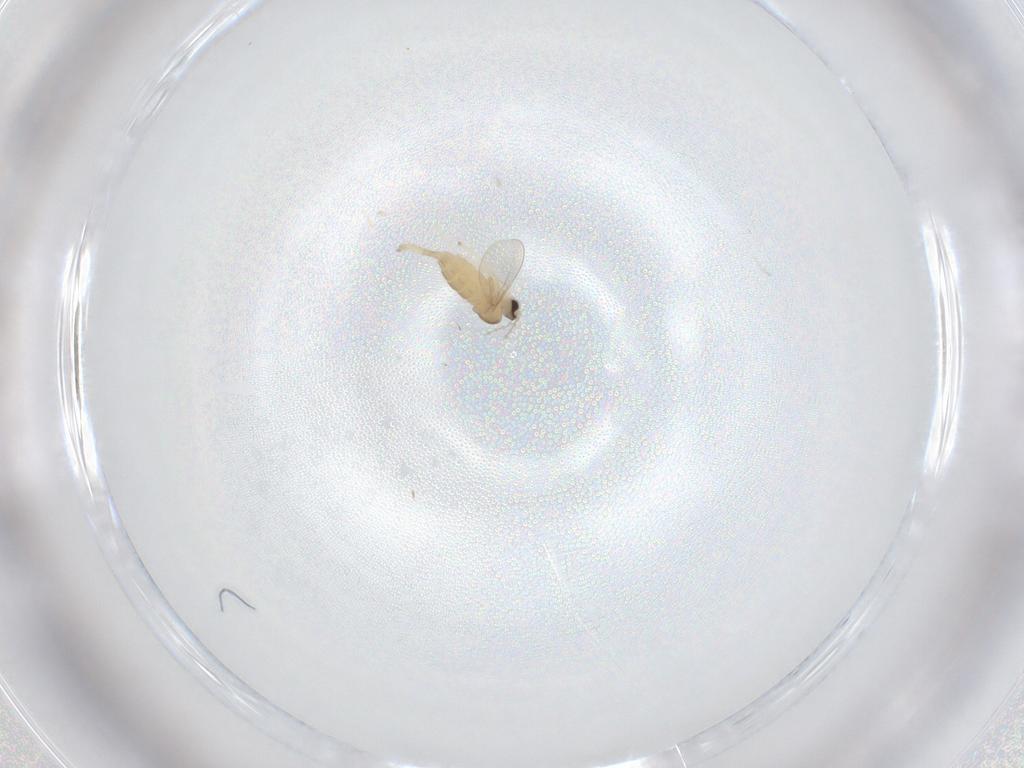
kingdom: Animalia
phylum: Arthropoda
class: Insecta
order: Diptera
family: Cecidomyiidae
